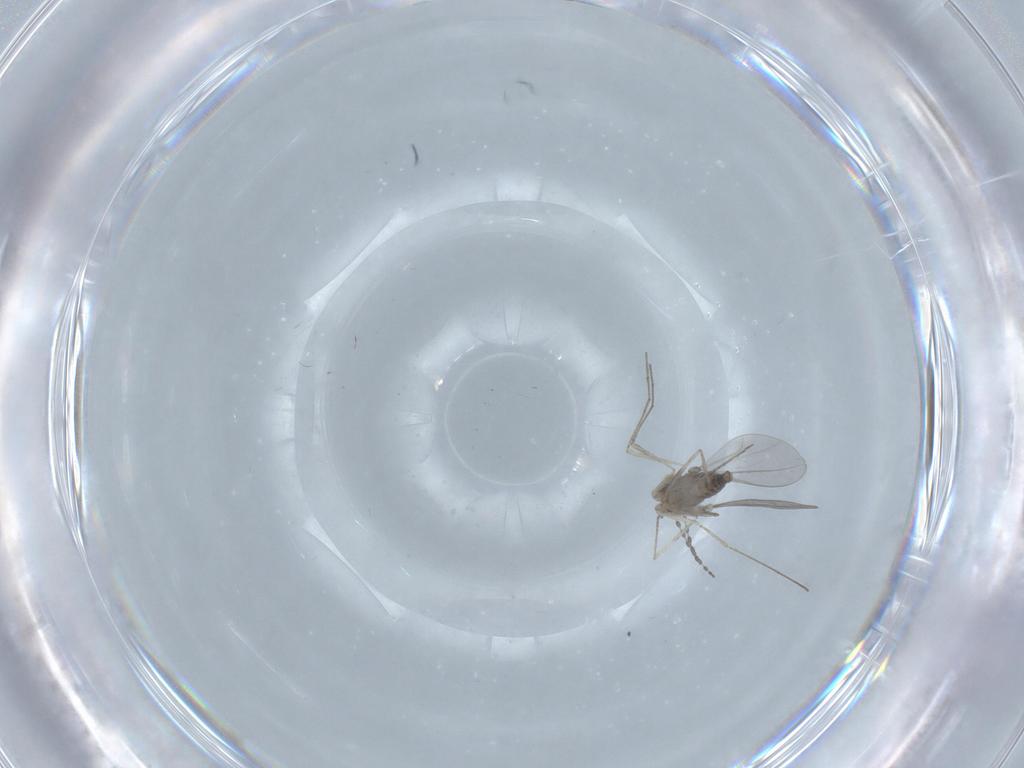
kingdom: Animalia
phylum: Arthropoda
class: Insecta
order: Diptera
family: Cecidomyiidae
